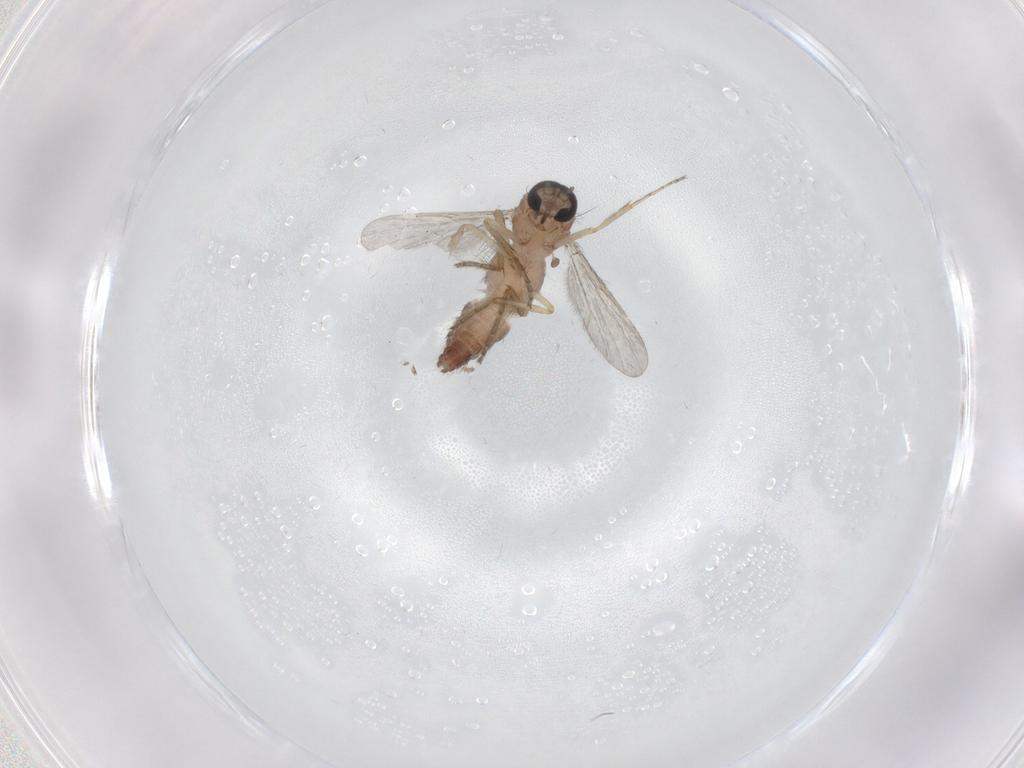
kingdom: Animalia
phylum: Arthropoda
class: Insecta
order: Diptera
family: Ceratopogonidae
